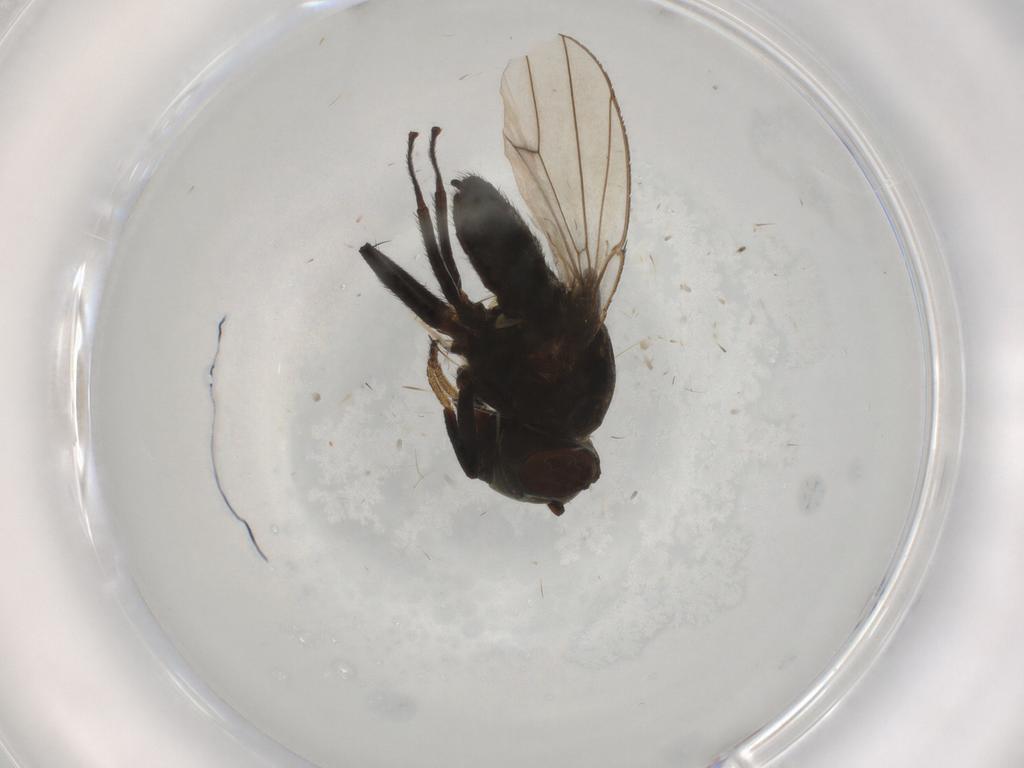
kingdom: Animalia
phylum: Arthropoda
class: Insecta
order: Diptera
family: Ephydridae
